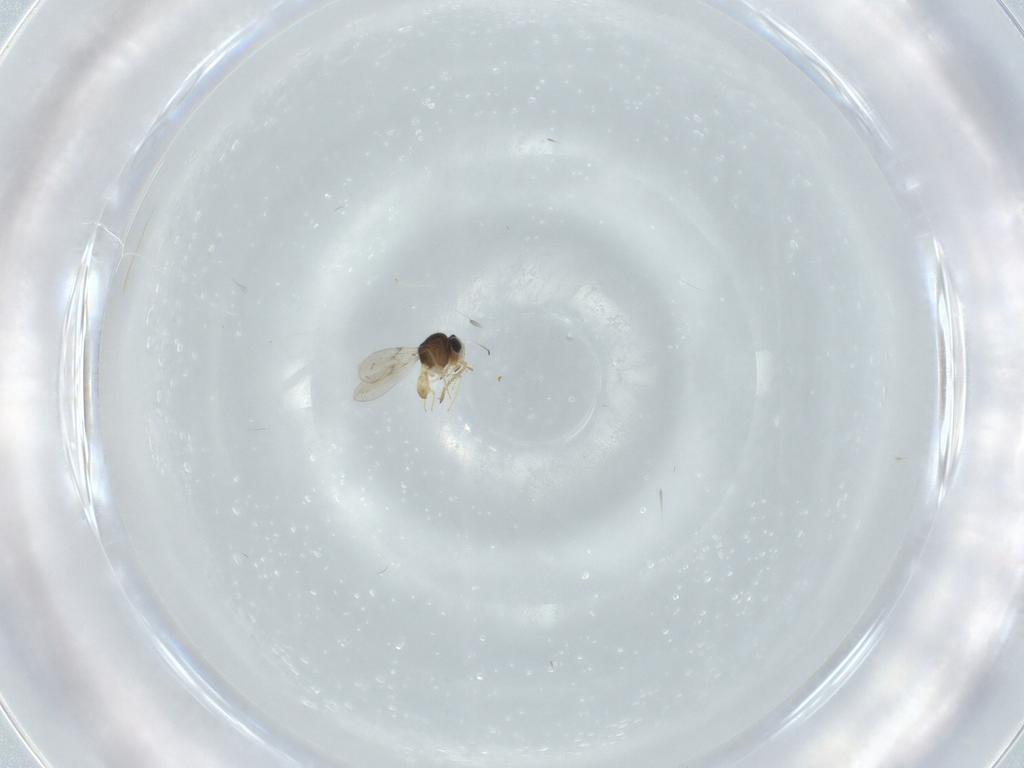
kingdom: Animalia
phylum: Arthropoda
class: Insecta
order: Hymenoptera
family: Scelionidae
